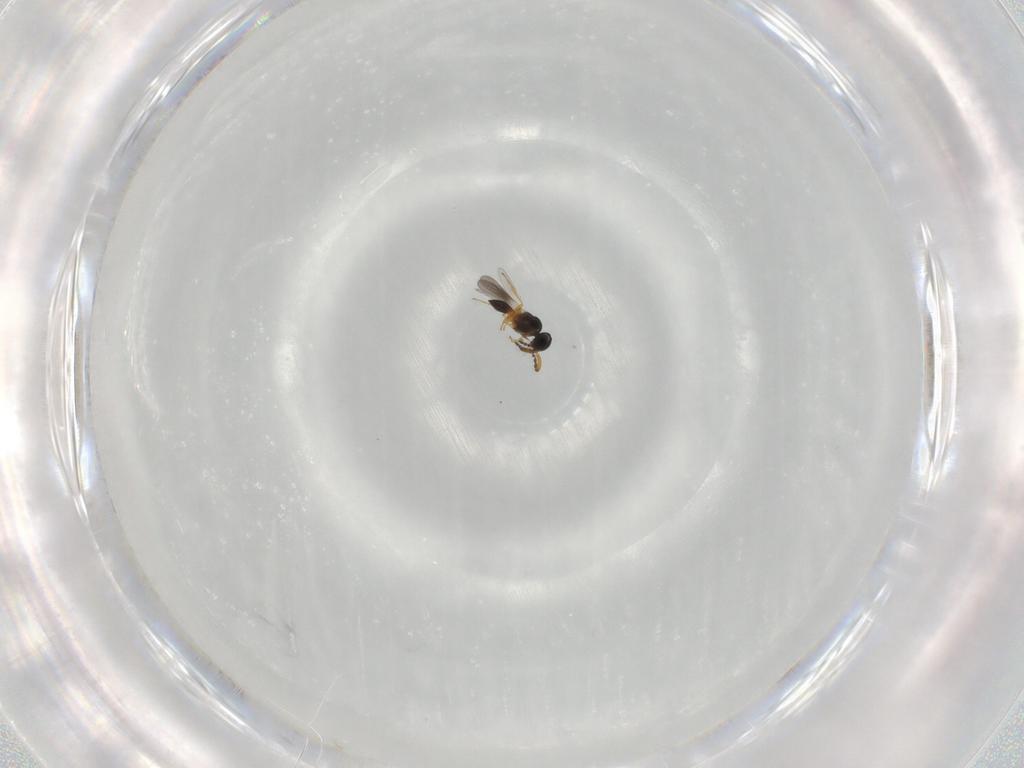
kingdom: Animalia
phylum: Arthropoda
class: Insecta
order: Hymenoptera
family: Platygastridae
